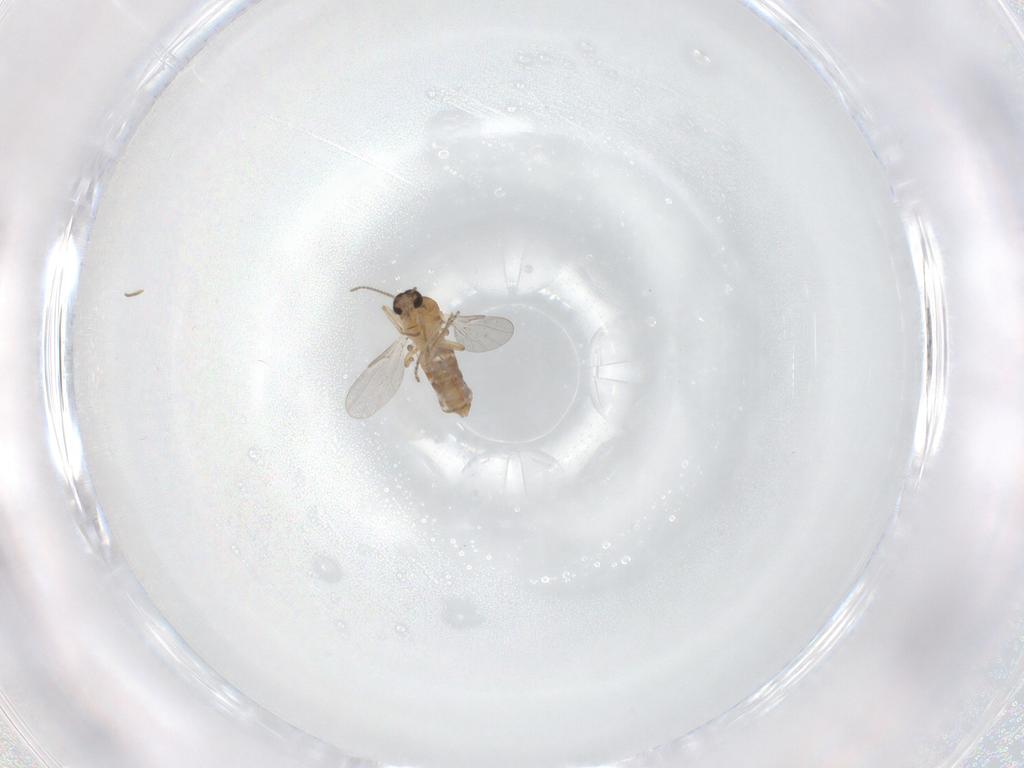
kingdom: Animalia
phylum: Arthropoda
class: Insecta
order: Diptera
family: Ceratopogonidae
